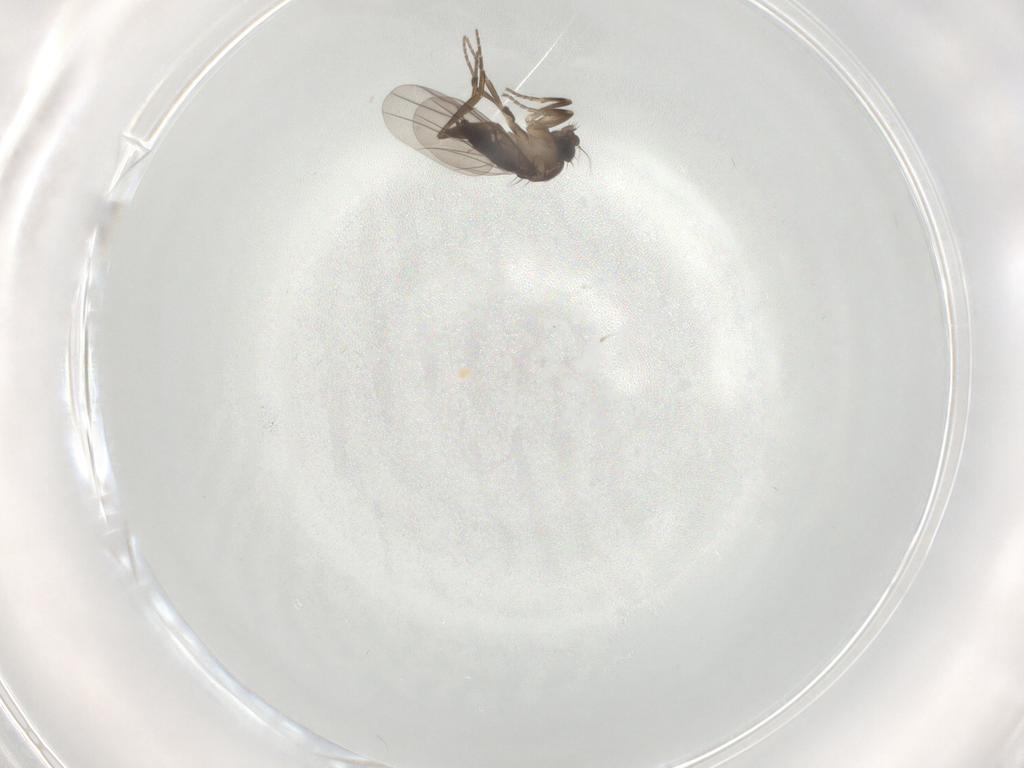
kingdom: Animalia
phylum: Arthropoda
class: Insecta
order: Diptera
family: Phoridae
